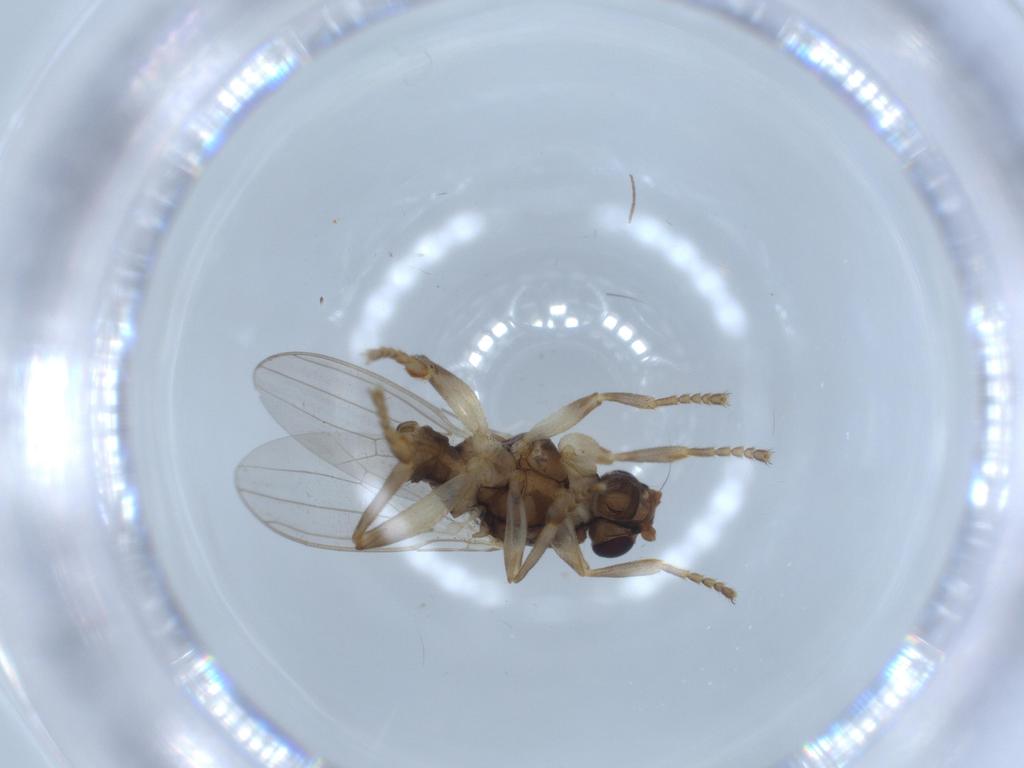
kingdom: Animalia
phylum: Arthropoda
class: Insecta
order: Diptera
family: Sphaeroceridae
